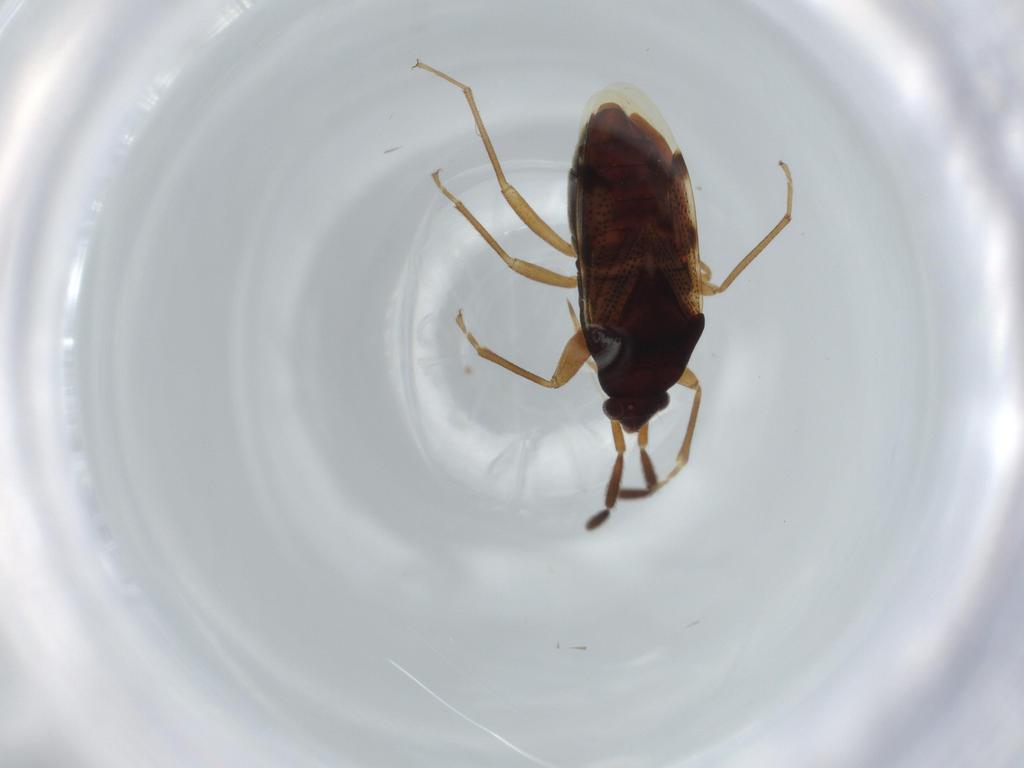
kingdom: Animalia
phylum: Arthropoda
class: Insecta
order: Hemiptera
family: Rhyparochromidae
